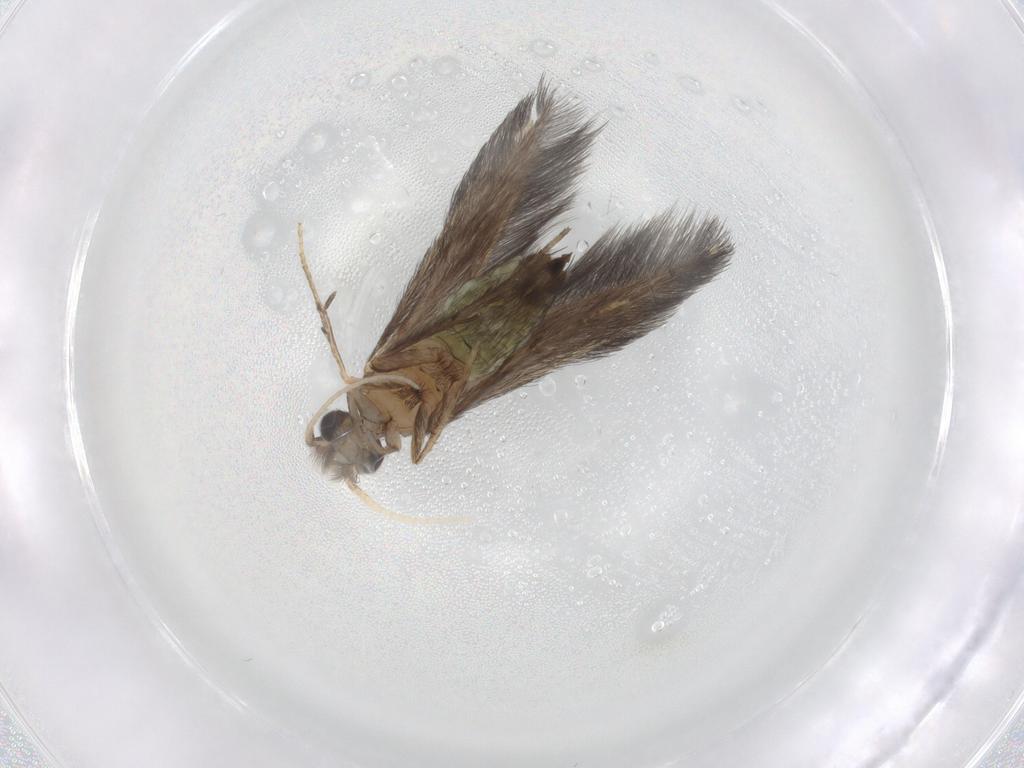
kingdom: Animalia
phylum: Arthropoda
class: Insecta
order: Trichoptera
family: Hydroptilidae
